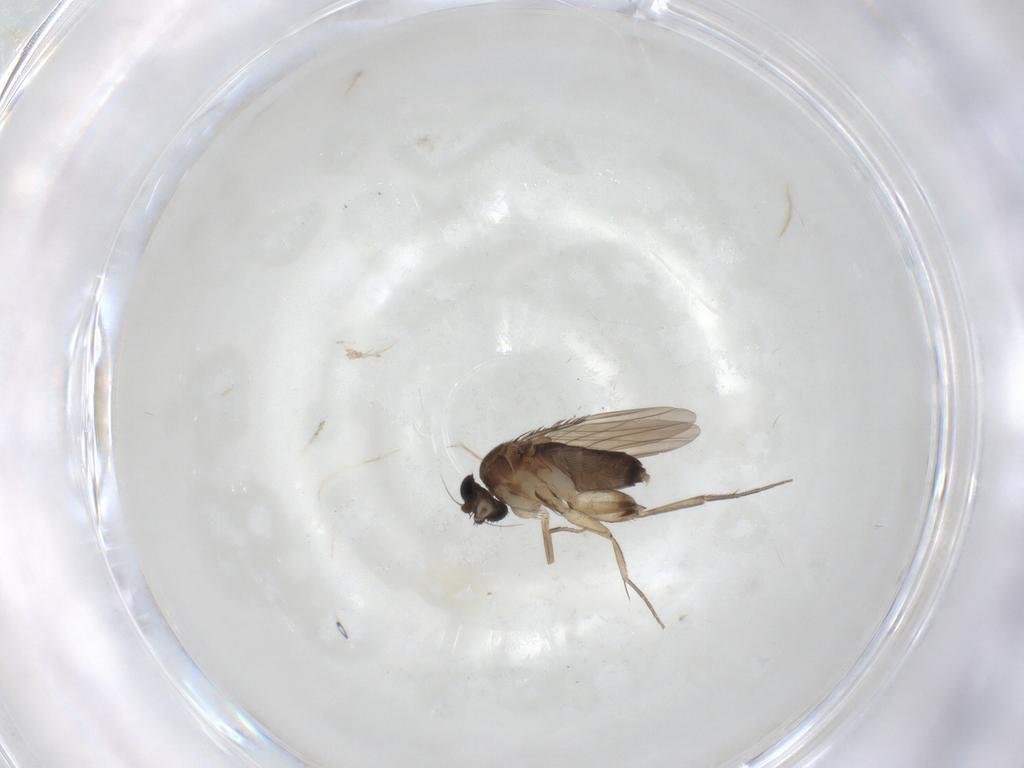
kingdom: Animalia
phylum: Arthropoda
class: Insecta
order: Diptera
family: Phoridae
